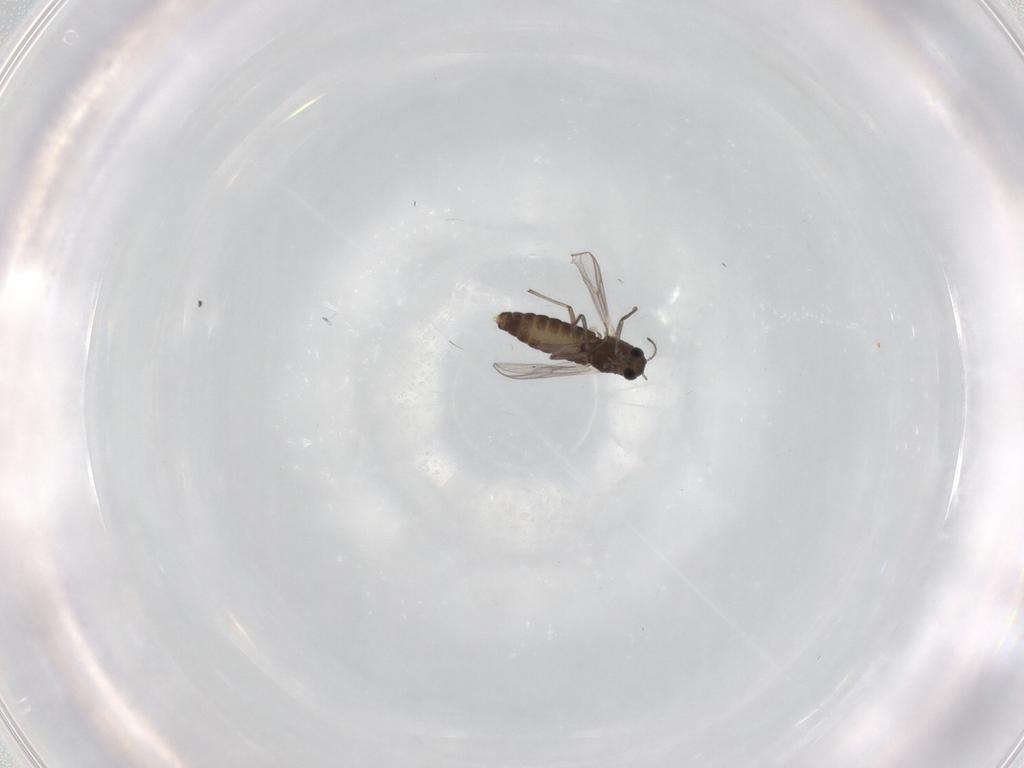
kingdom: Animalia
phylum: Arthropoda
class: Insecta
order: Diptera
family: Chironomidae
